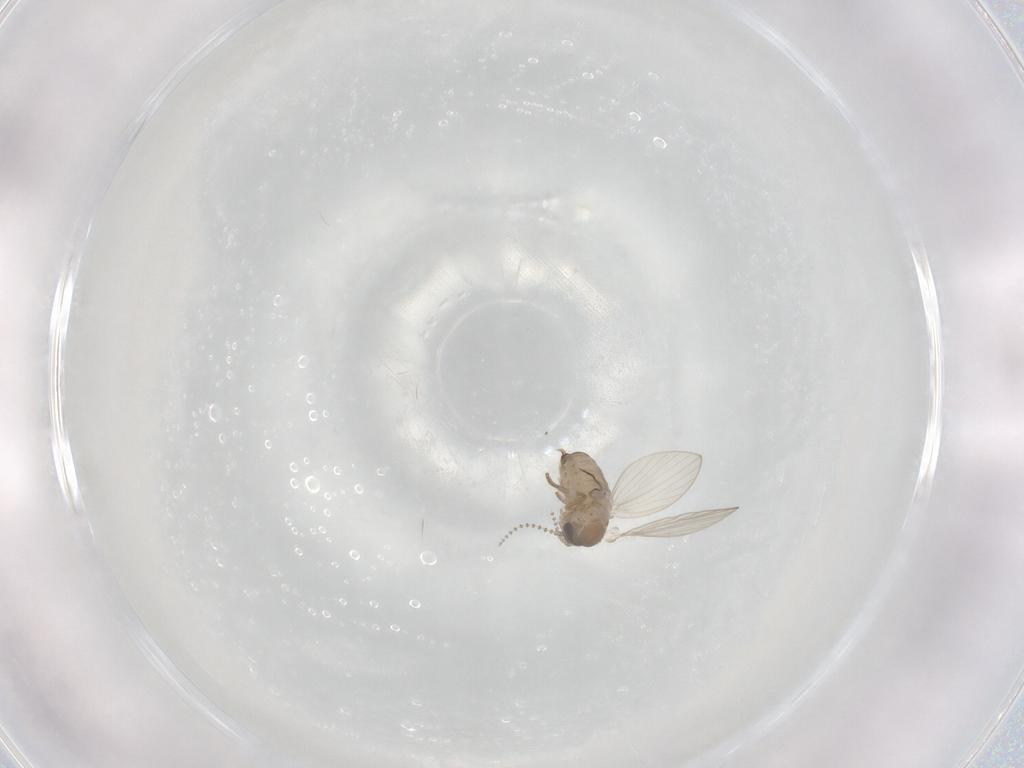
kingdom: Animalia
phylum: Arthropoda
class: Insecta
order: Diptera
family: Psychodidae
